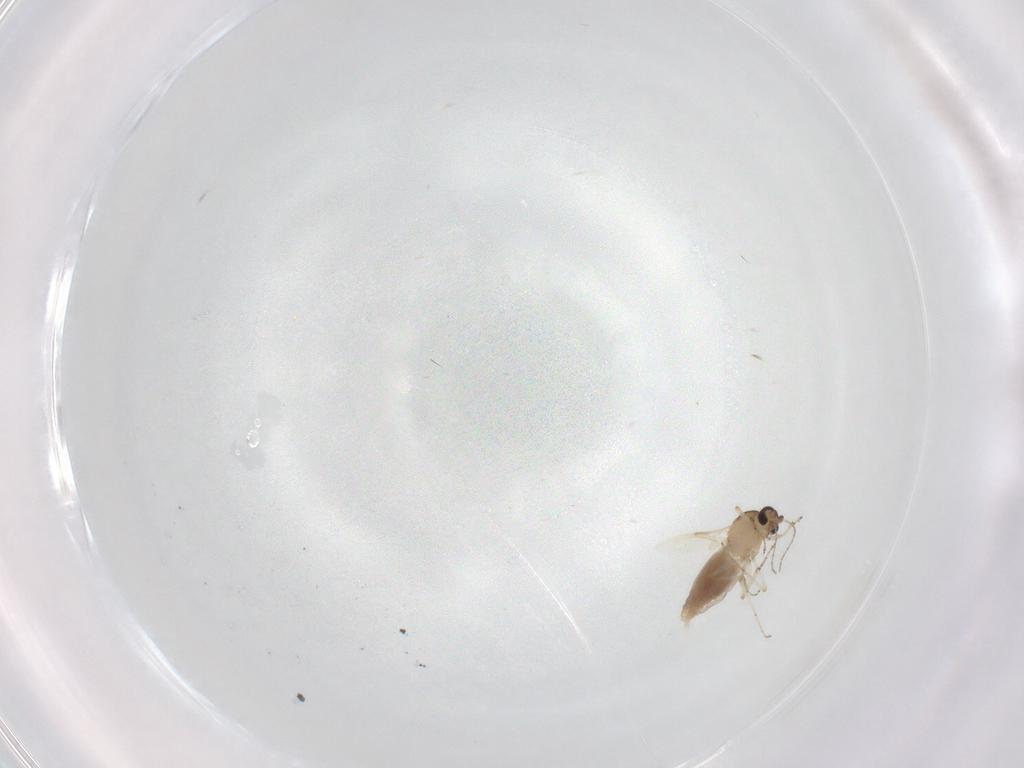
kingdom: Animalia
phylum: Arthropoda
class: Insecta
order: Diptera
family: Ceratopogonidae
